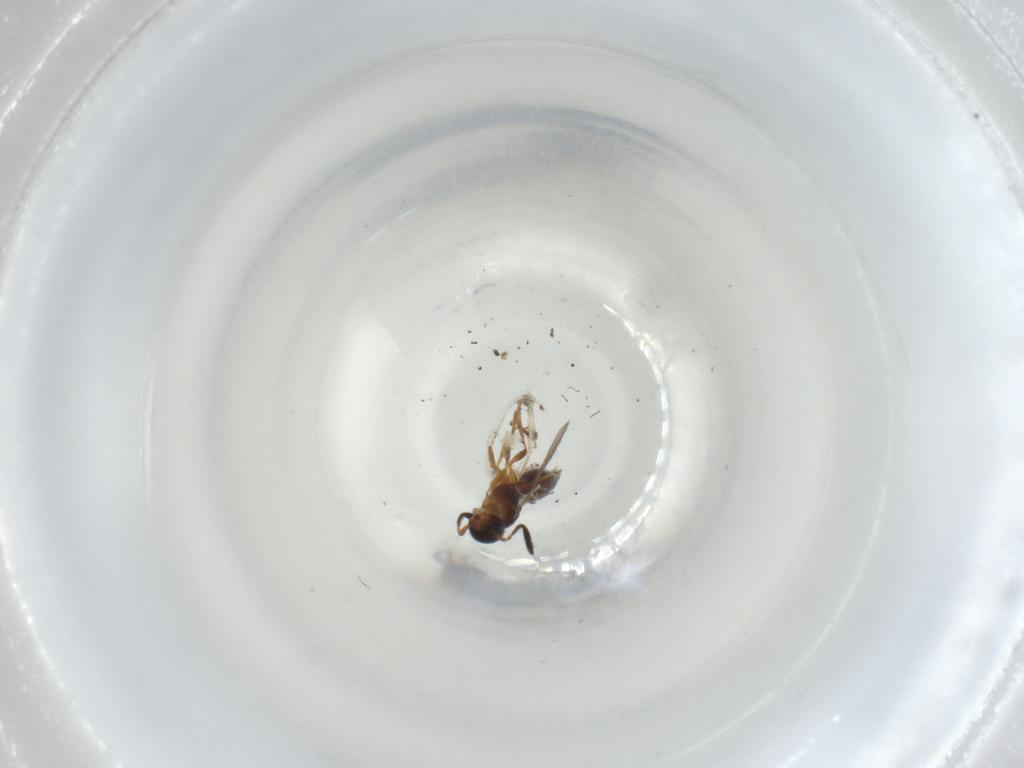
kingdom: Animalia
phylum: Arthropoda
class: Insecta
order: Hymenoptera
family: Scelionidae
